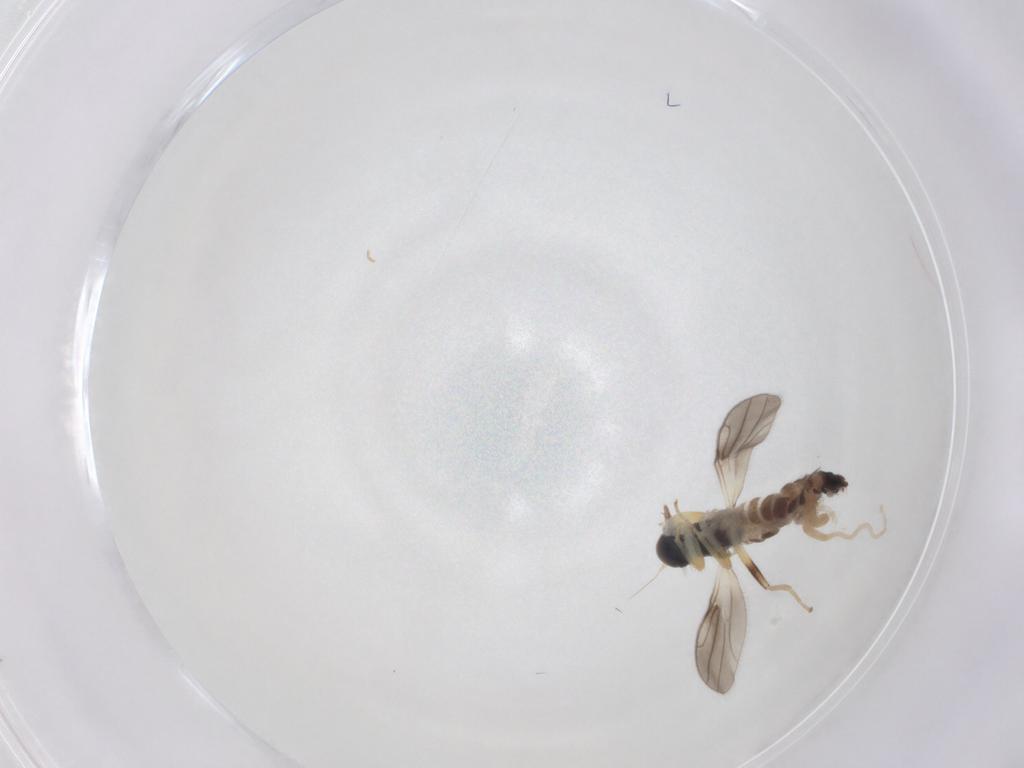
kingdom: Animalia
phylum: Arthropoda
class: Insecta
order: Diptera
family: Hybotidae
